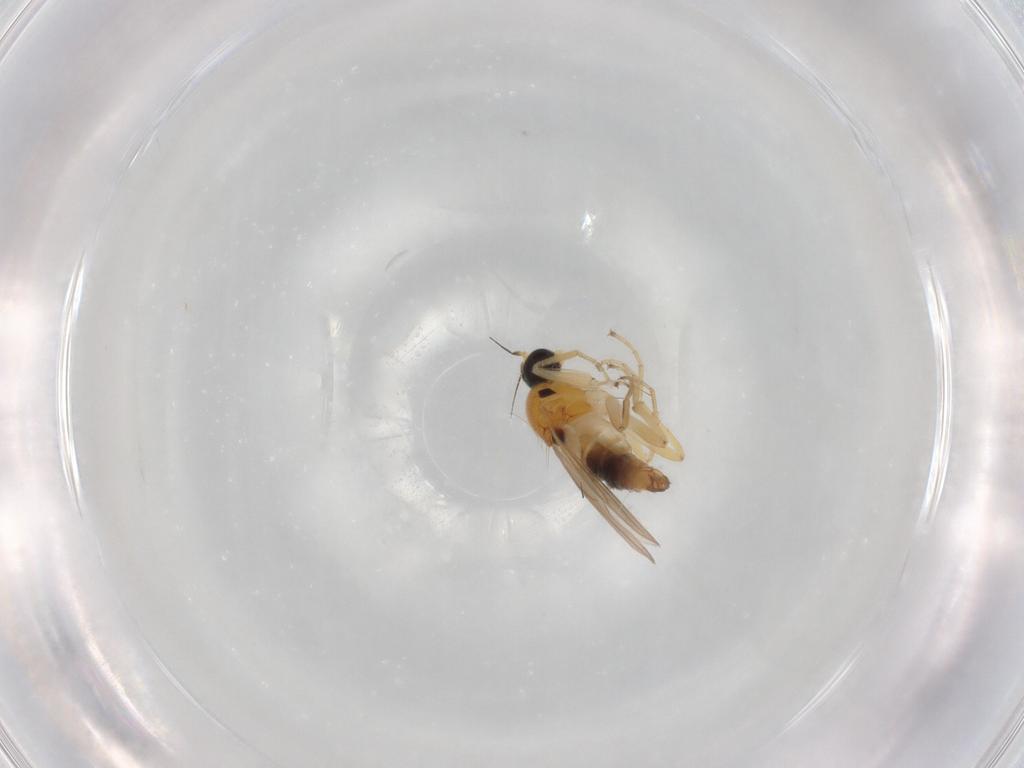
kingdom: Animalia
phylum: Arthropoda
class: Insecta
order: Diptera
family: Hybotidae
